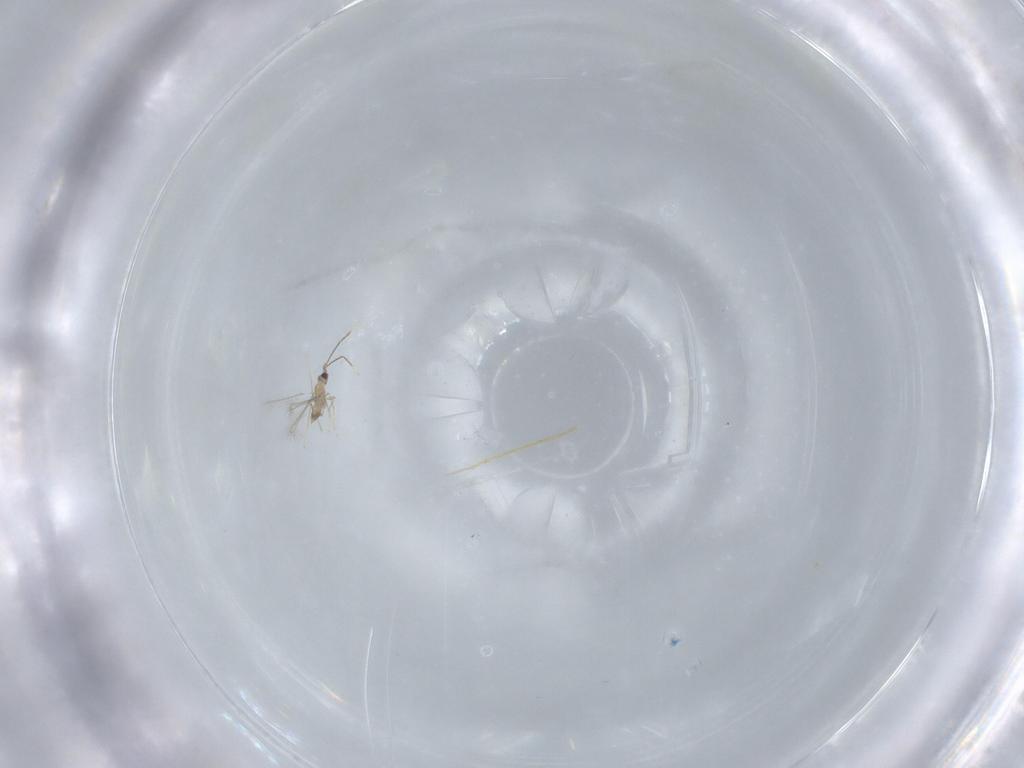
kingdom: Animalia
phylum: Arthropoda
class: Insecta
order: Hymenoptera
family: Mymaridae
